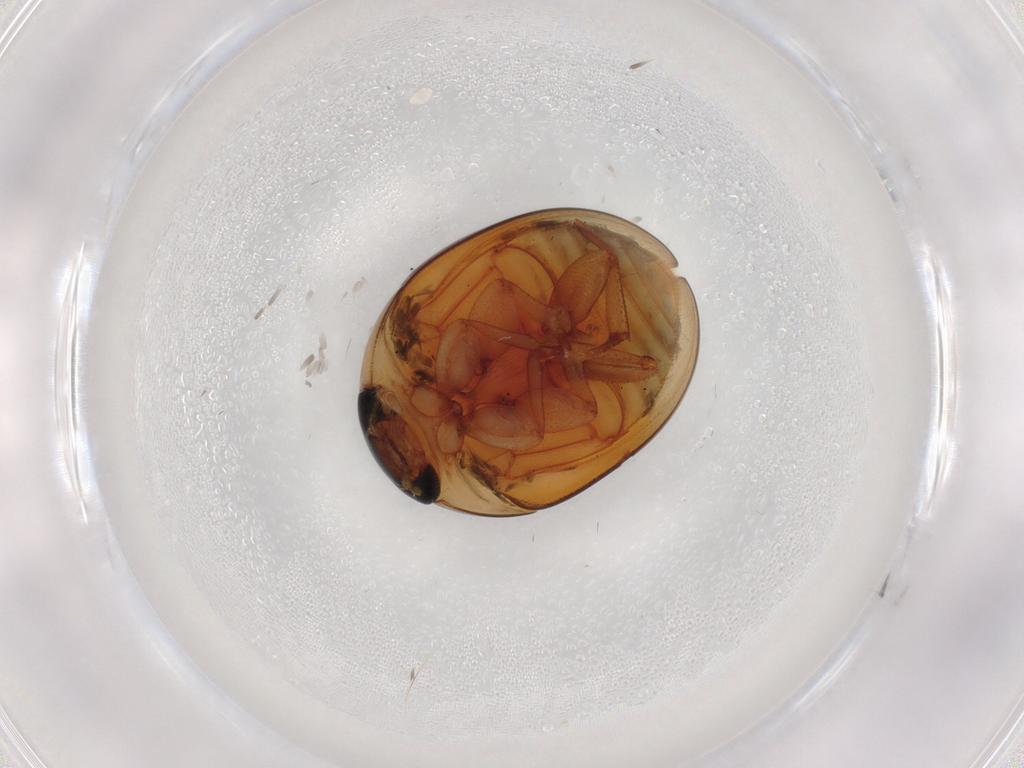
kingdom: Animalia
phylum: Arthropoda
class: Insecta
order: Coleoptera
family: Phalacridae
